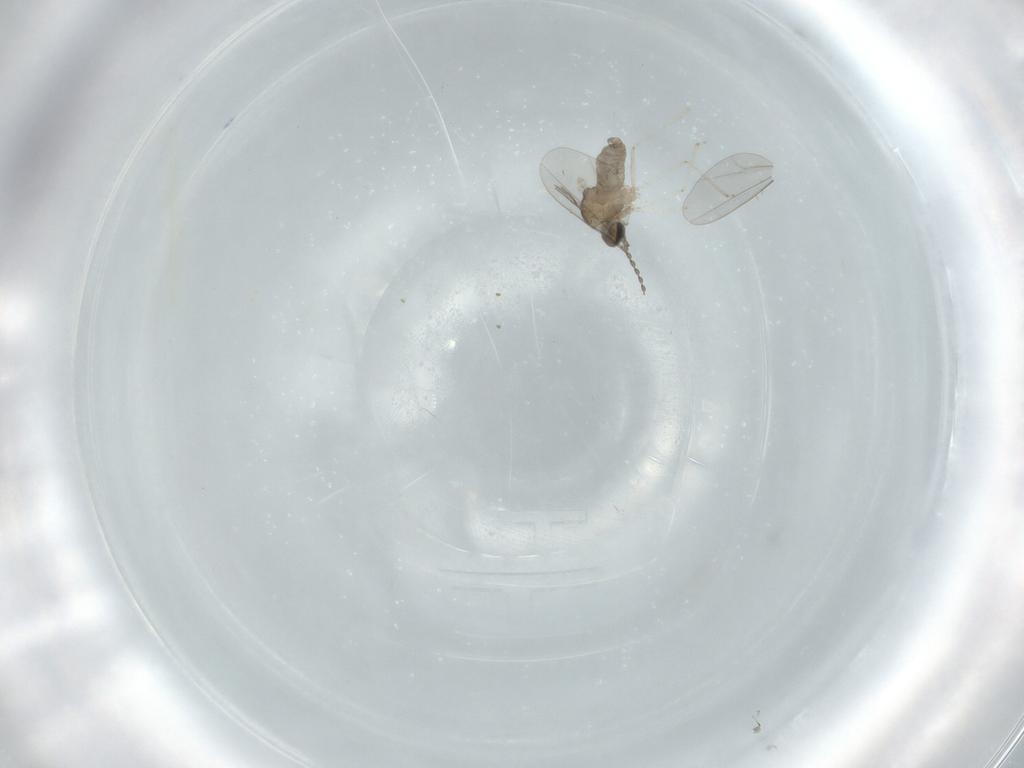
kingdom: Animalia
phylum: Arthropoda
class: Insecta
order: Diptera
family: Cecidomyiidae
